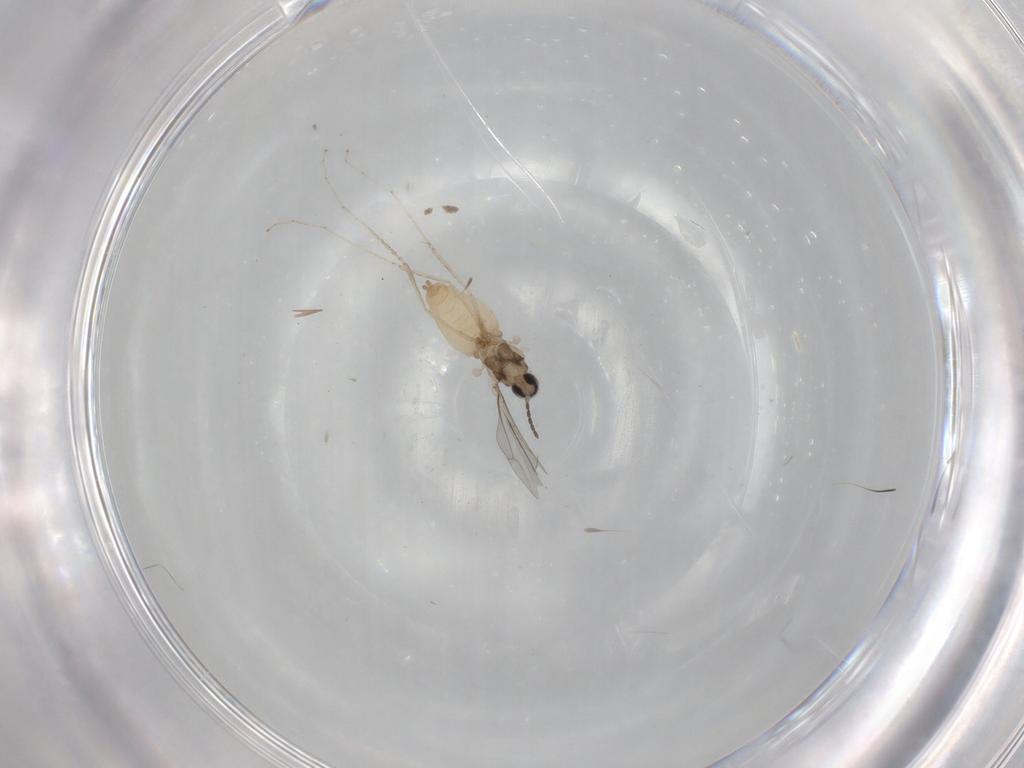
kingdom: Animalia
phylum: Arthropoda
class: Insecta
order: Diptera
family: Cecidomyiidae
